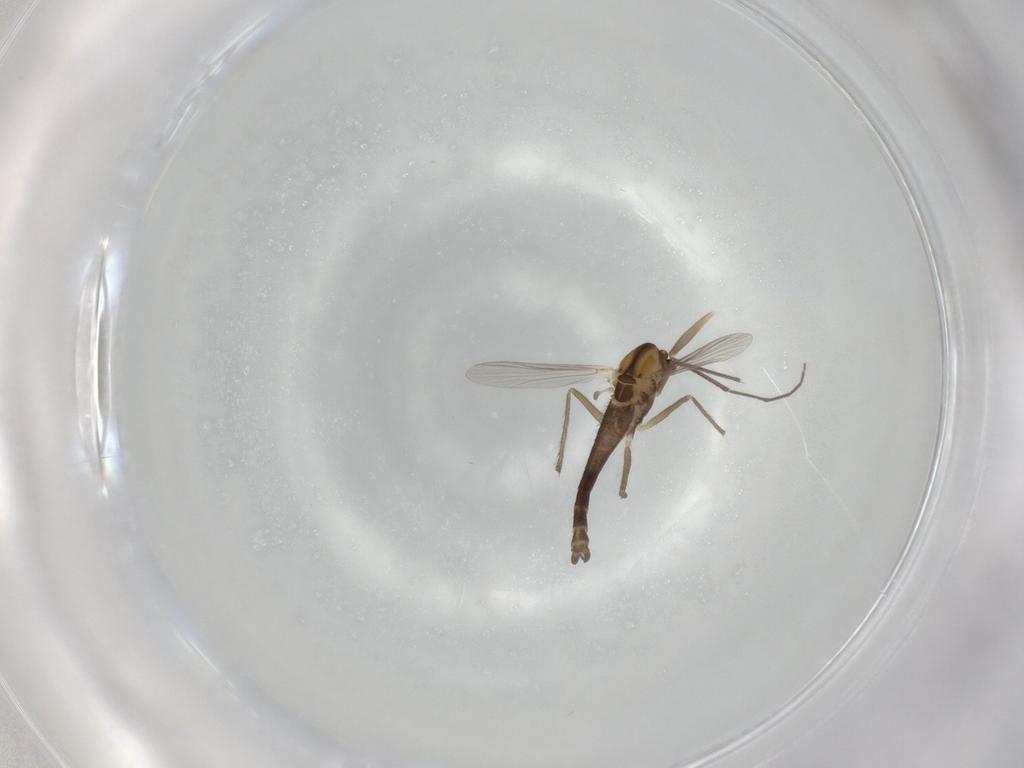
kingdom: Animalia
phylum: Arthropoda
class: Insecta
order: Diptera
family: Chironomidae
